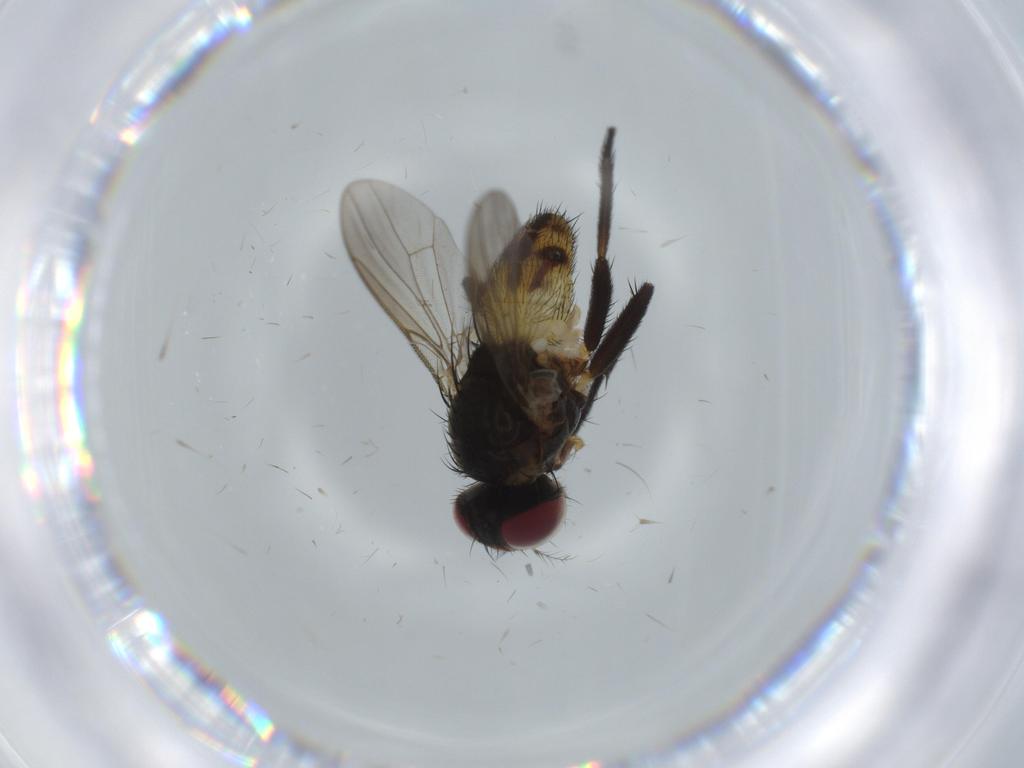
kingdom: Animalia
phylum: Arthropoda
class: Insecta
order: Diptera
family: Anthomyiidae
